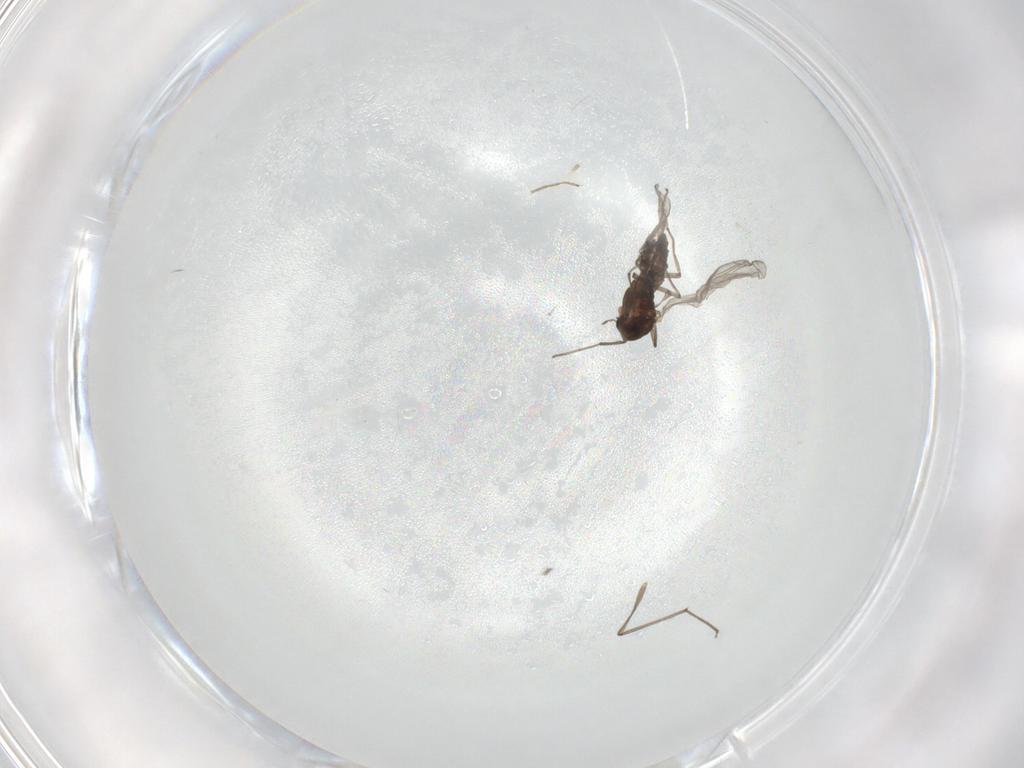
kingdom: Animalia
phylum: Arthropoda
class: Insecta
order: Diptera
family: Chironomidae
